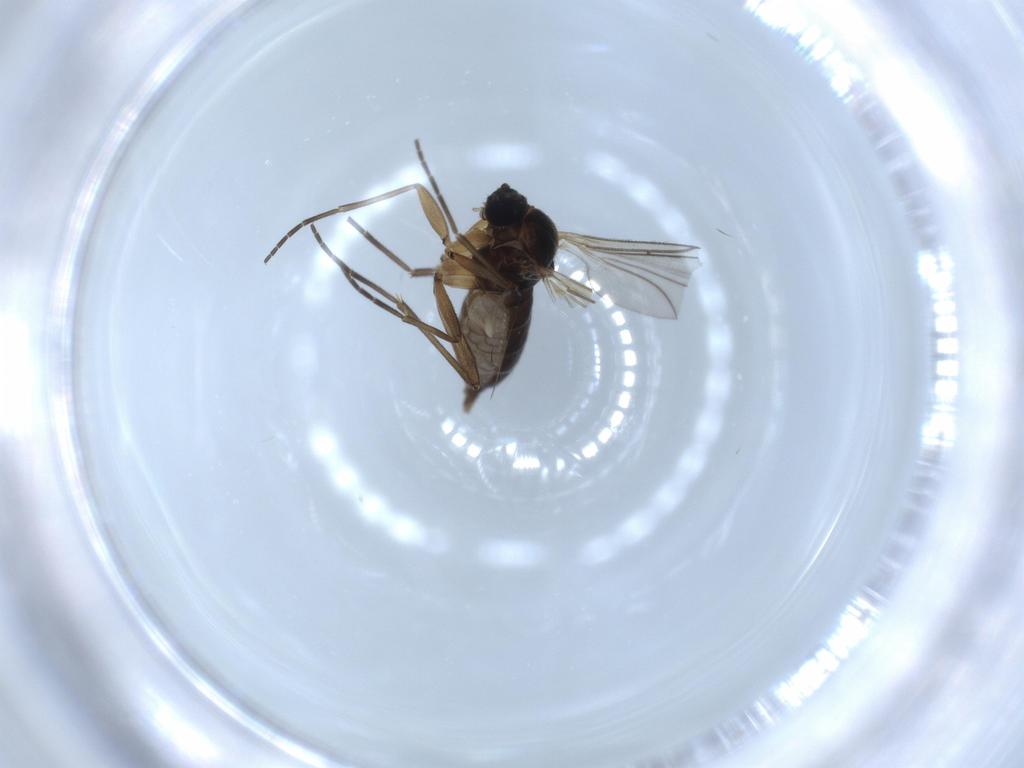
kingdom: Animalia
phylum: Arthropoda
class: Insecta
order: Diptera
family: Sciaridae
